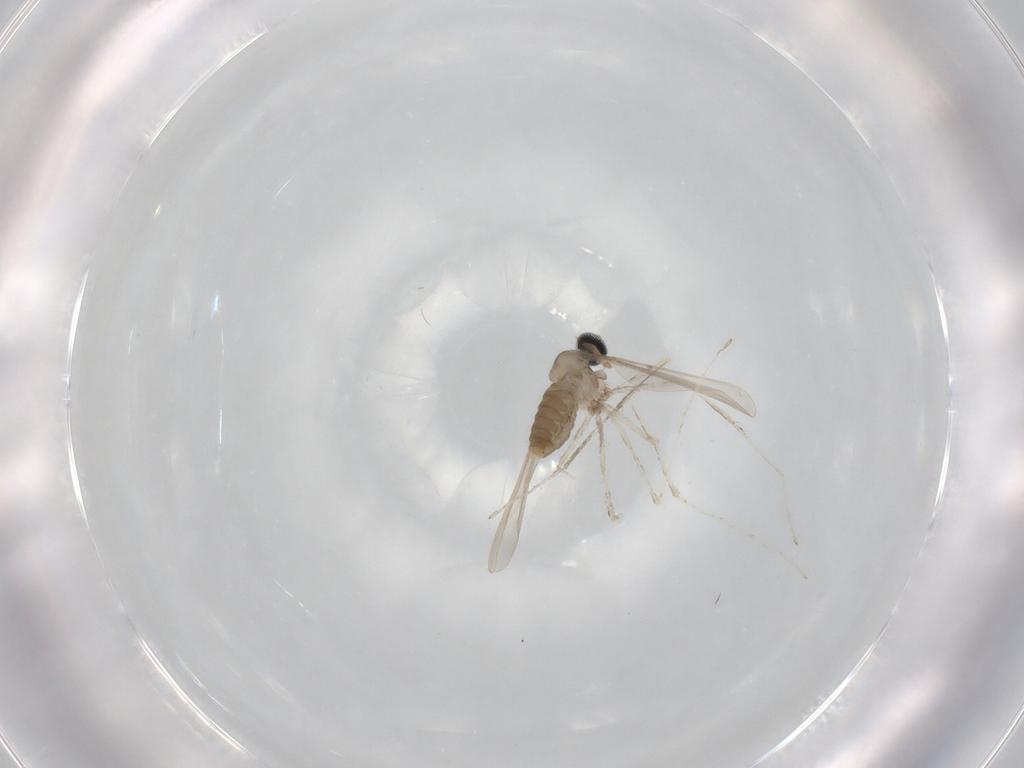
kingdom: Animalia
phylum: Arthropoda
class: Insecta
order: Diptera
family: Cecidomyiidae
